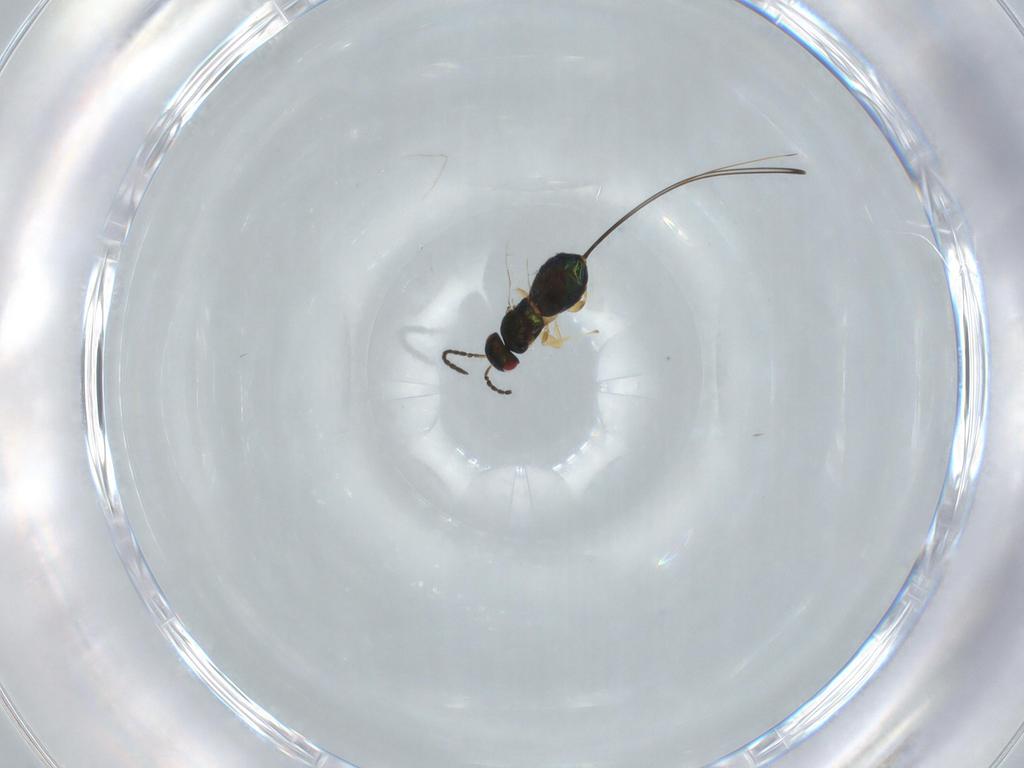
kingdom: Animalia
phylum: Arthropoda
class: Insecta
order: Hymenoptera
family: Pteromalidae
